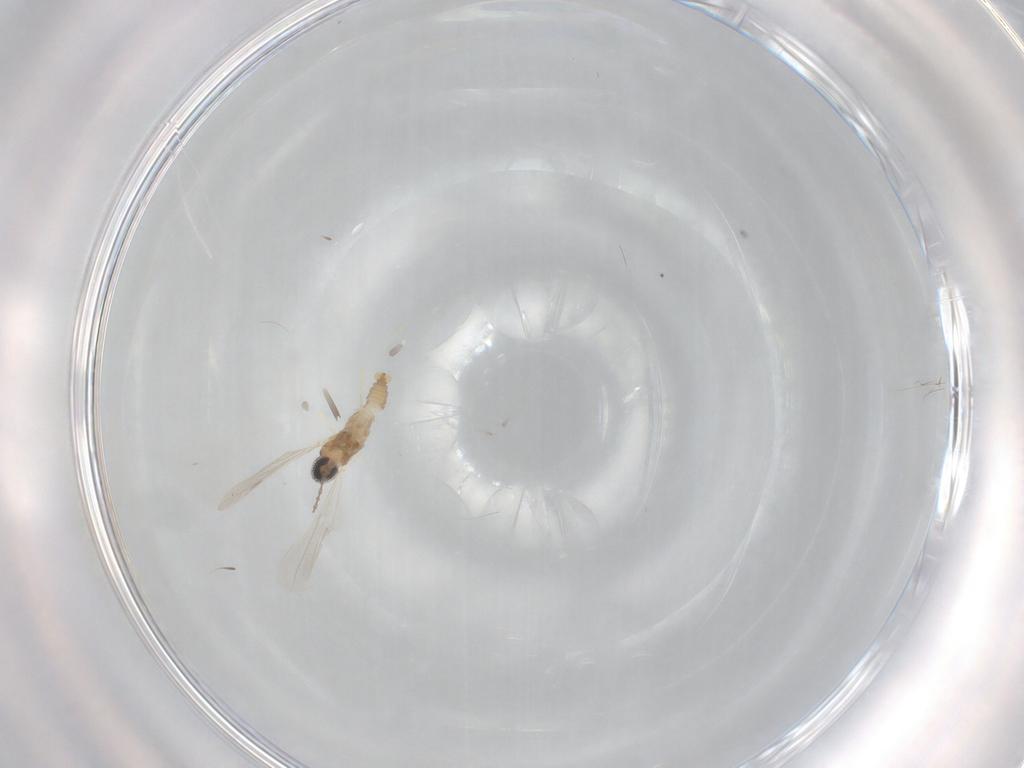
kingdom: Animalia
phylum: Arthropoda
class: Insecta
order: Diptera
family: Cecidomyiidae
